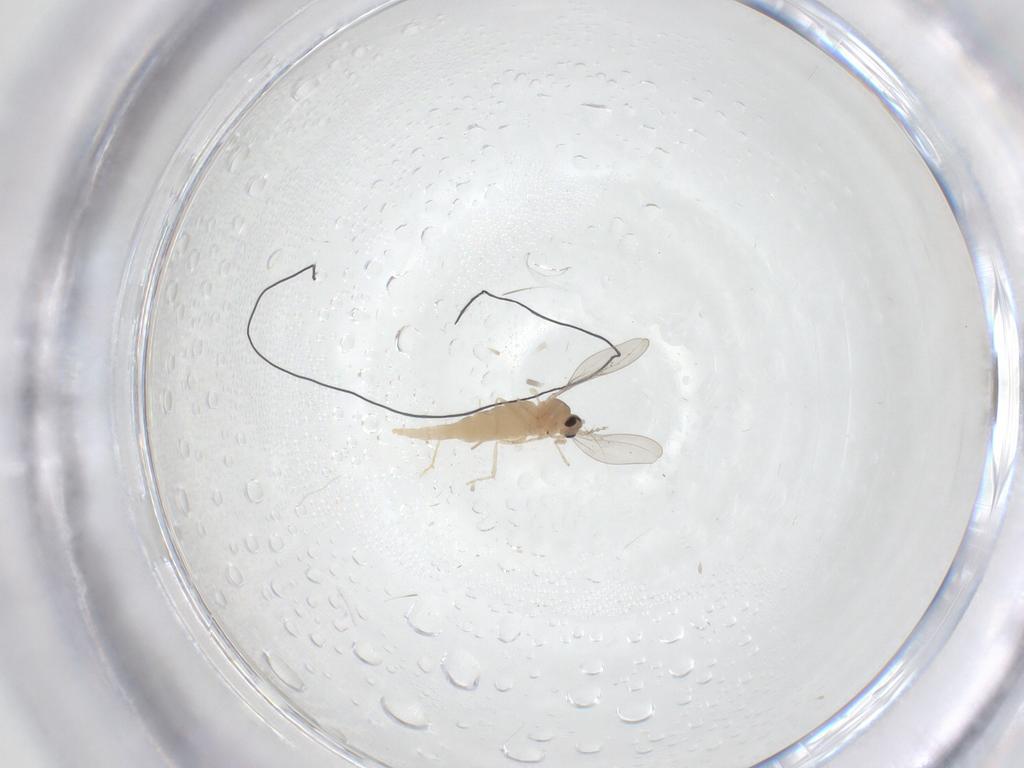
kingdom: Animalia
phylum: Arthropoda
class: Insecta
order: Diptera
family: Cecidomyiidae
